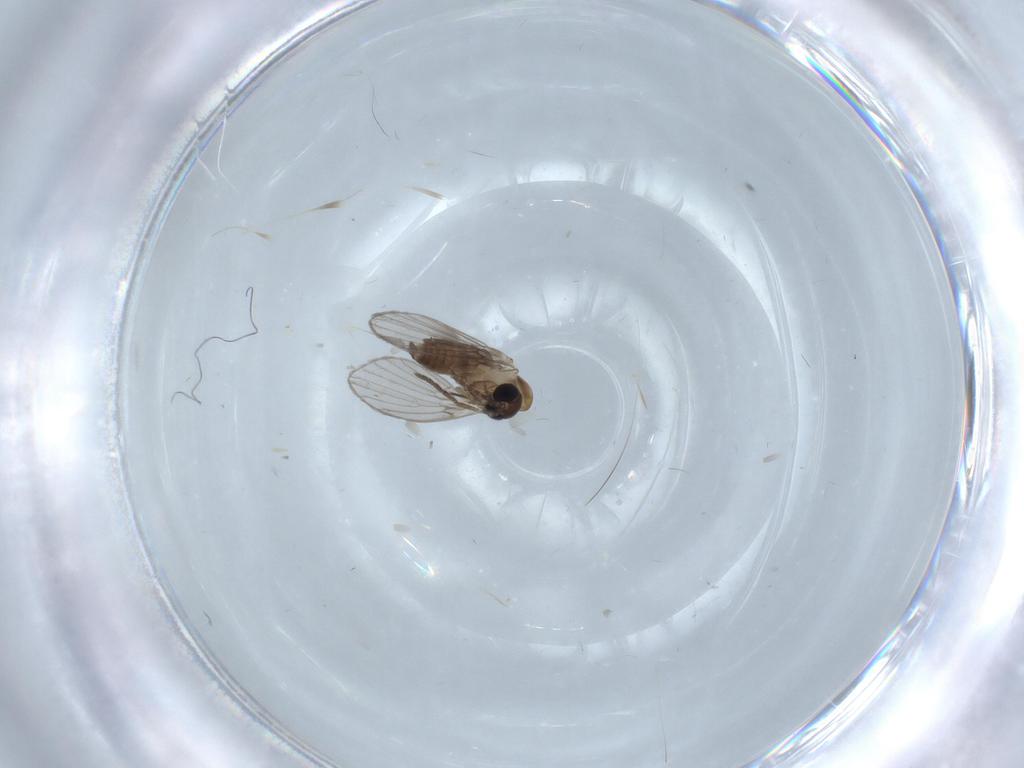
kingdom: Animalia
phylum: Arthropoda
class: Insecta
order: Diptera
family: Psychodidae
